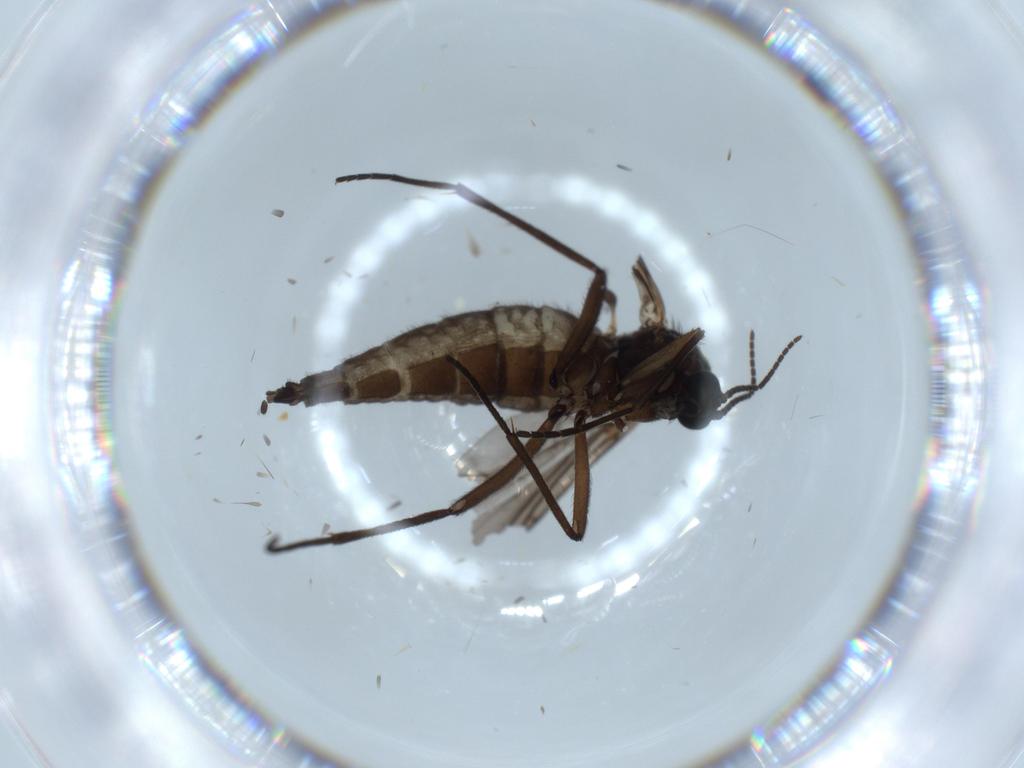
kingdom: Animalia
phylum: Arthropoda
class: Insecta
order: Diptera
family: Sciaridae
